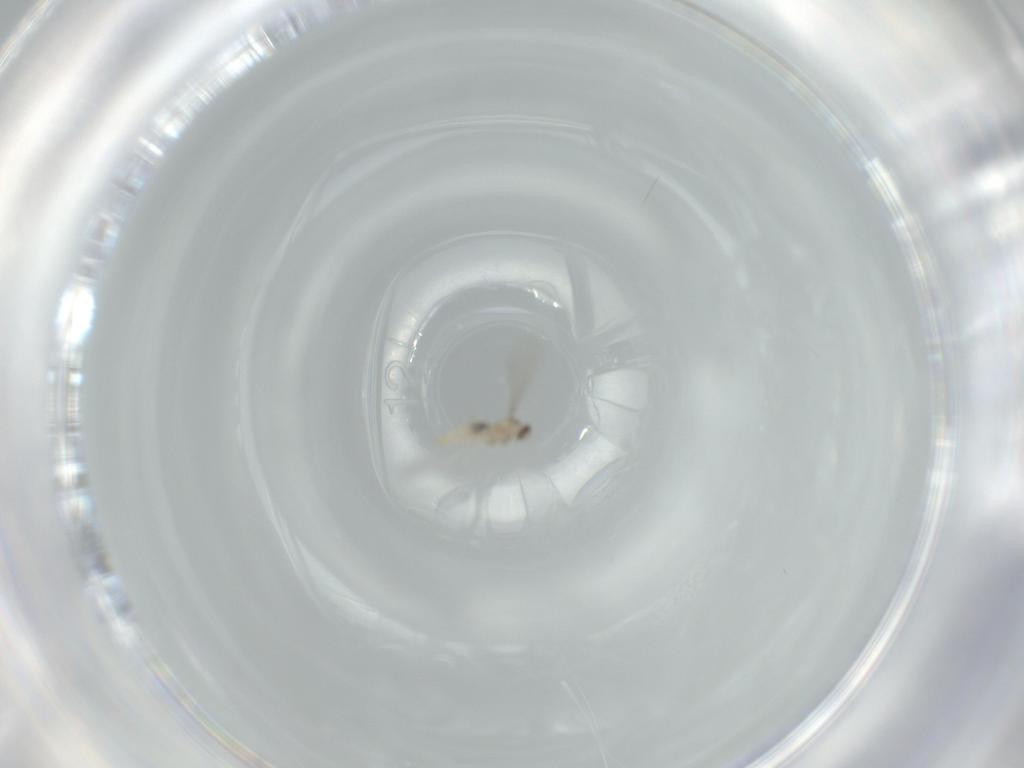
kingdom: Animalia
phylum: Arthropoda
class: Insecta
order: Diptera
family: Cecidomyiidae
